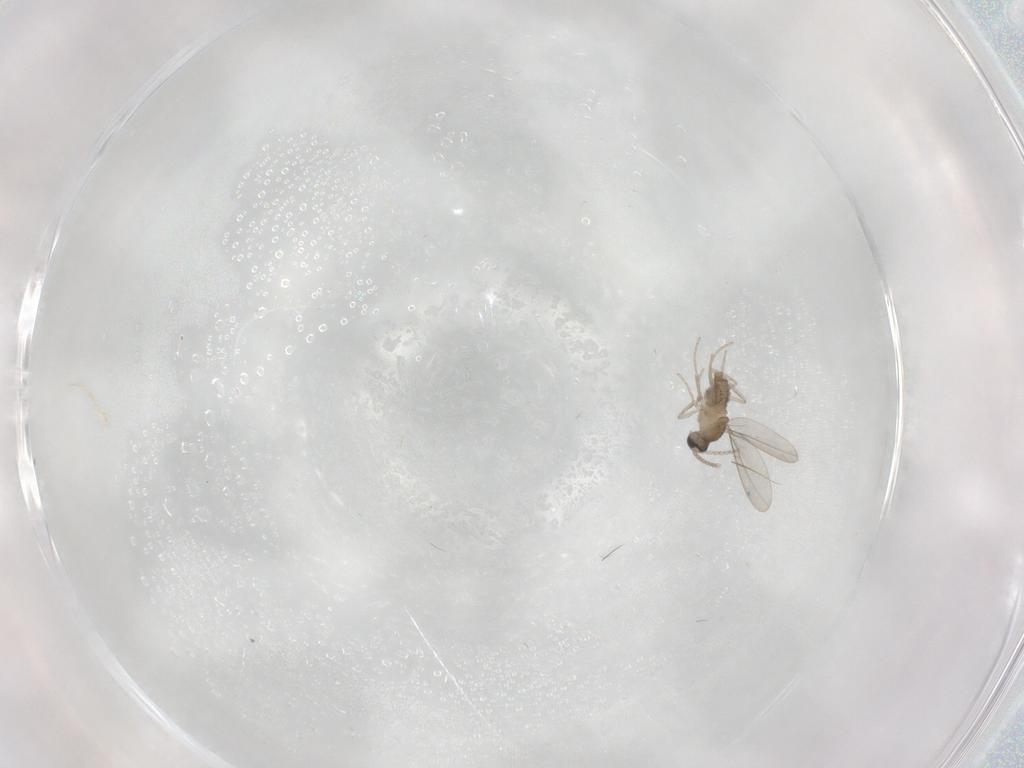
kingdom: Animalia
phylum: Arthropoda
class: Insecta
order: Diptera
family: Cecidomyiidae
